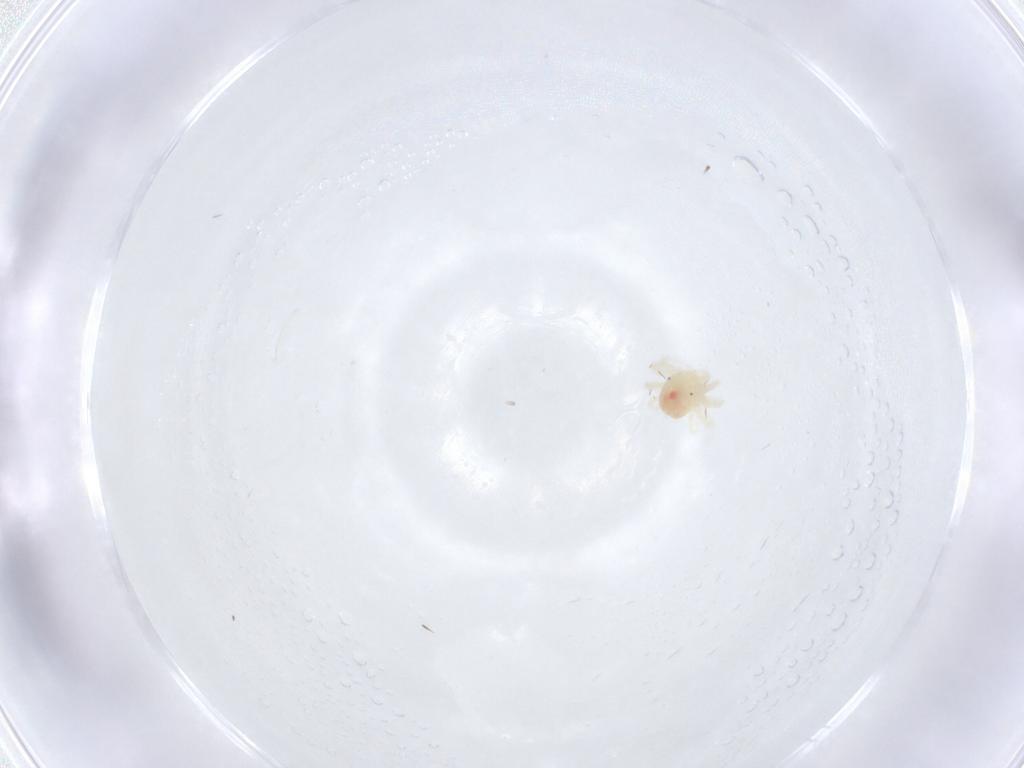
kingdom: Animalia
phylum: Arthropoda
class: Arachnida
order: Trombidiformes
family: Anystidae
